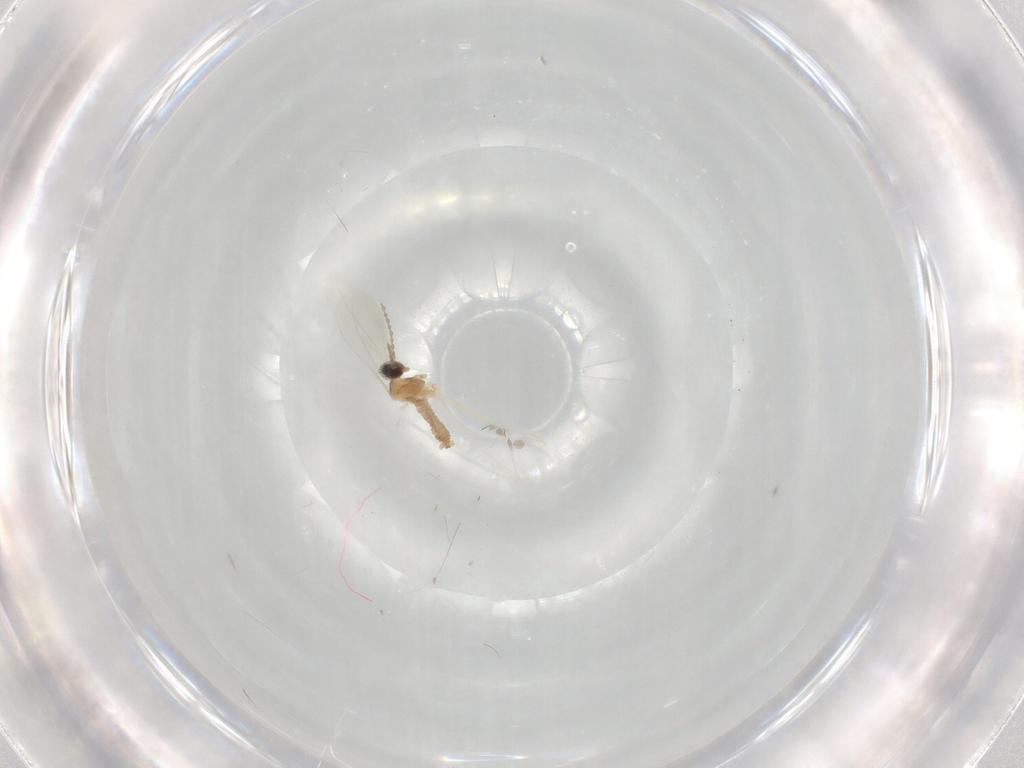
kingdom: Animalia
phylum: Arthropoda
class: Insecta
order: Diptera
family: Cecidomyiidae
